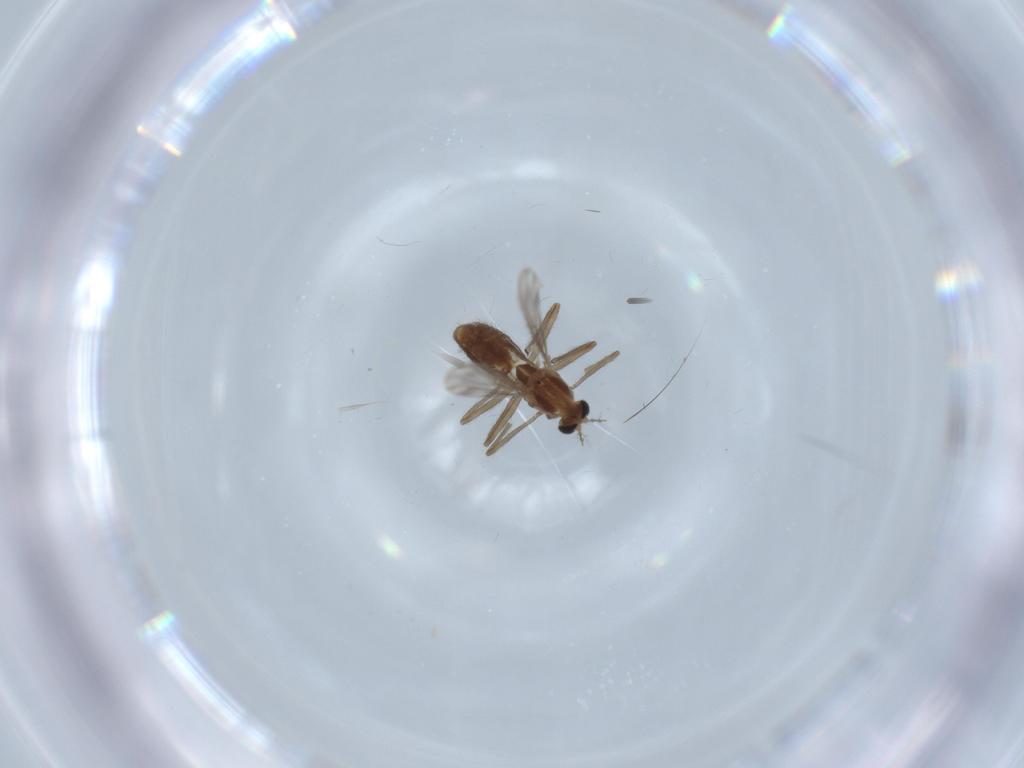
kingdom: Animalia
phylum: Arthropoda
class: Insecta
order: Diptera
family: Chironomidae
